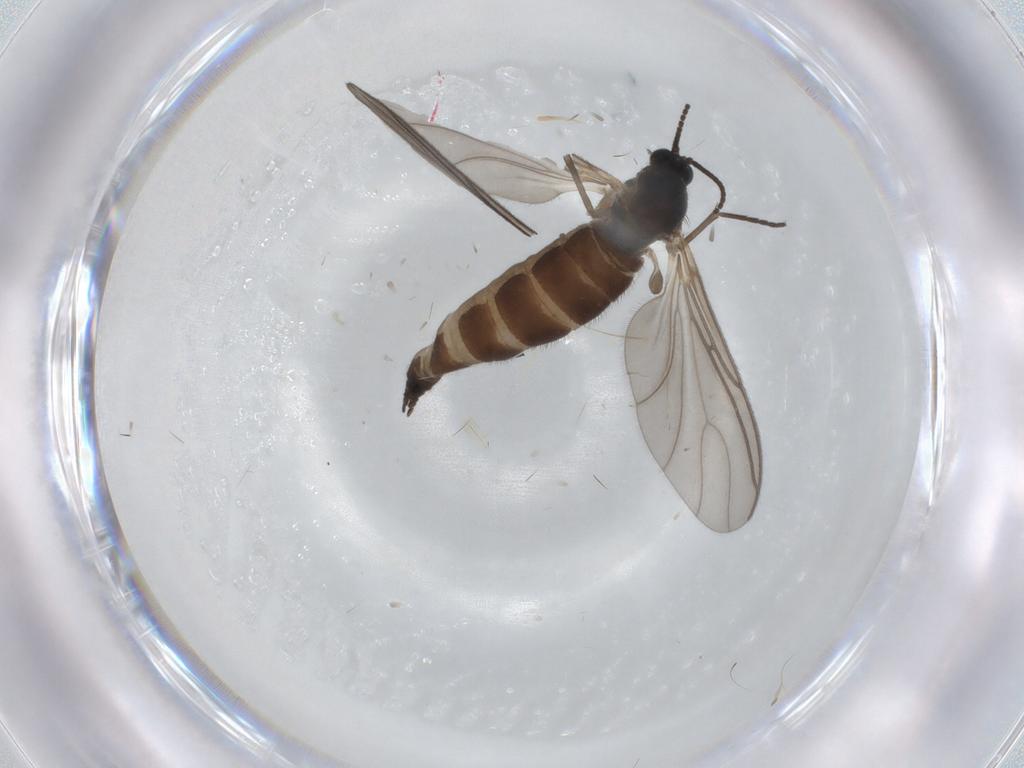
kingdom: Animalia
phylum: Arthropoda
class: Insecta
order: Diptera
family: Sciaridae
